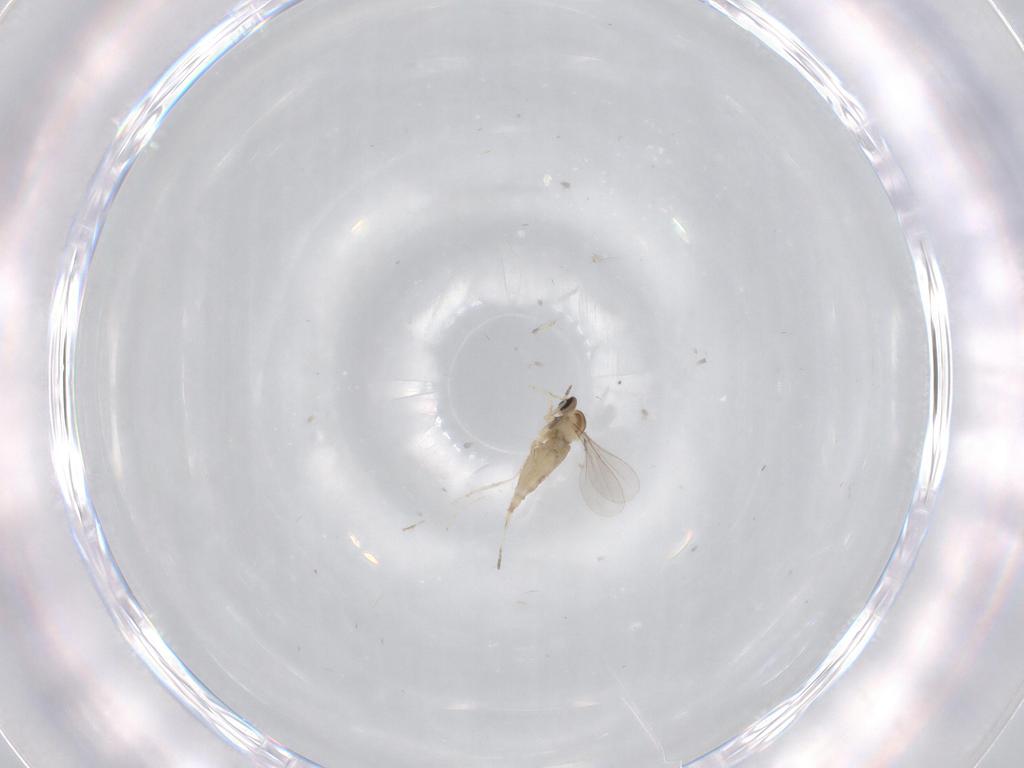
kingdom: Animalia
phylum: Arthropoda
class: Insecta
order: Diptera
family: Cecidomyiidae
